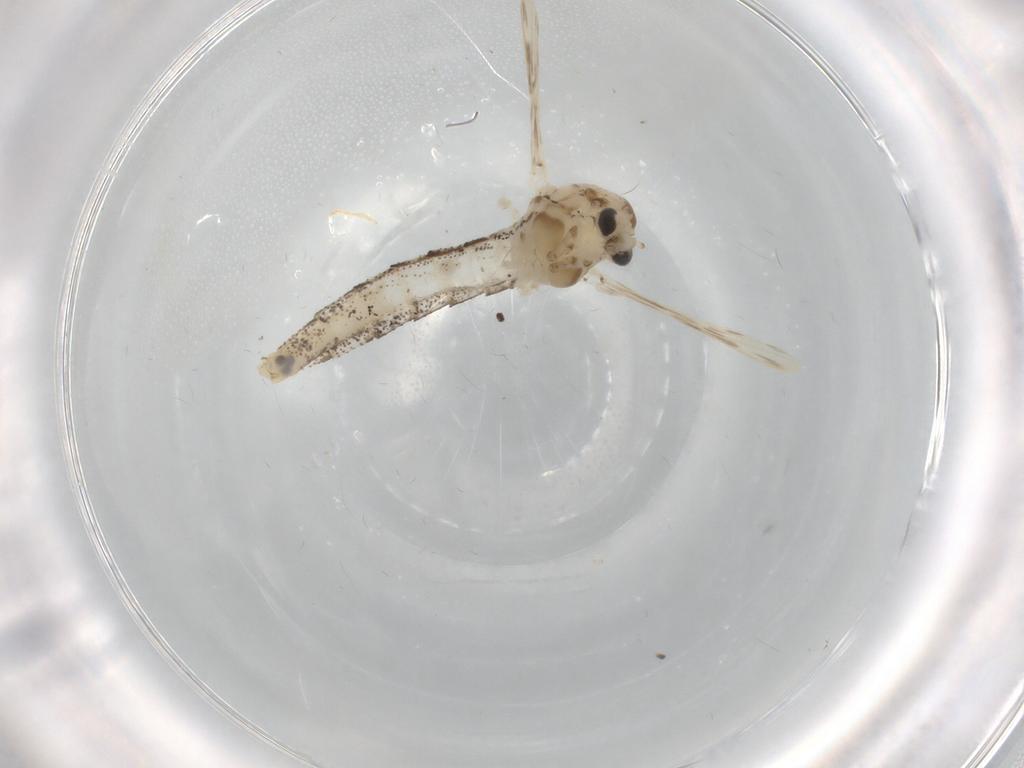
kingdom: Animalia
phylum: Arthropoda
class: Insecta
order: Diptera
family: Chaoboridae
